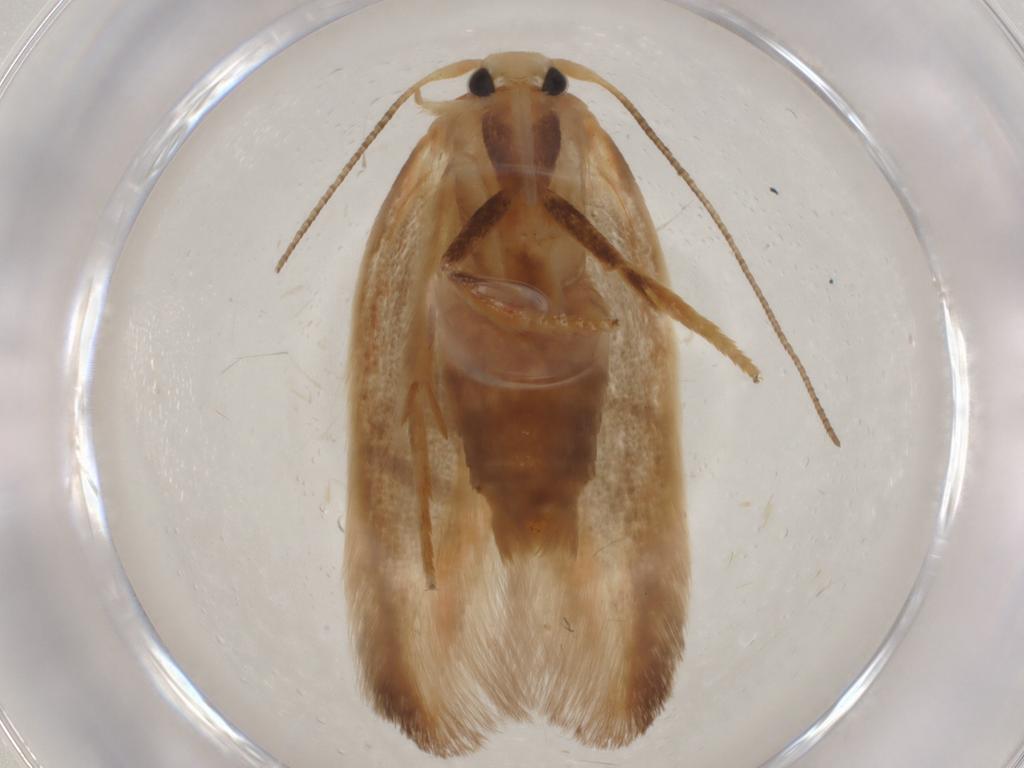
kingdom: Animalia
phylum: Arthropoda
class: Insecta
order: Lepidoptera
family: Geometridae
